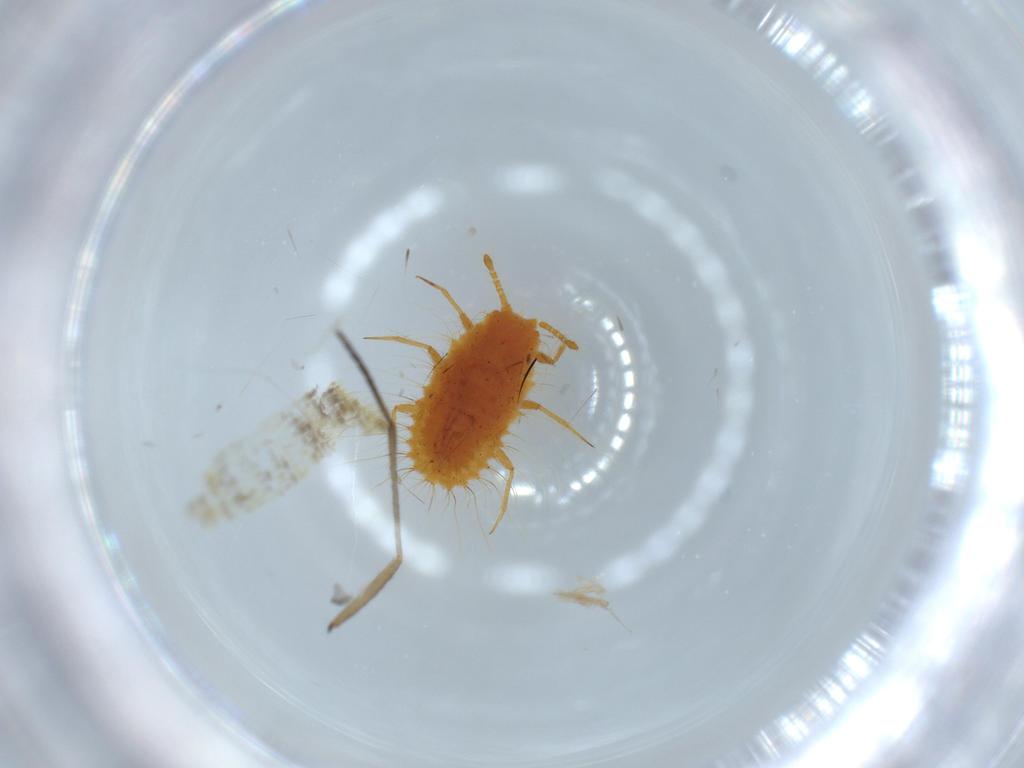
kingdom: Animalia
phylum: Arthropoda
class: Insecta
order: Hemiptera
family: Coccoidea_incertae_sedis
